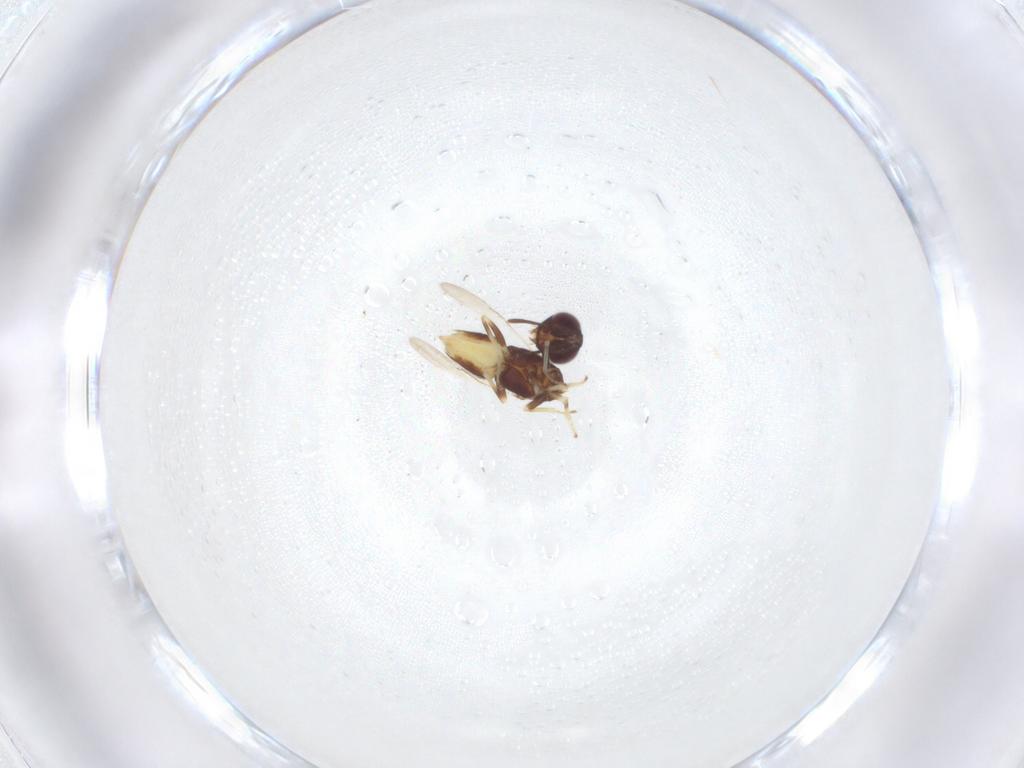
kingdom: Animalia
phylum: Arthropoda
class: Insecta
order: Hymenoptera
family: Encyrtidae
